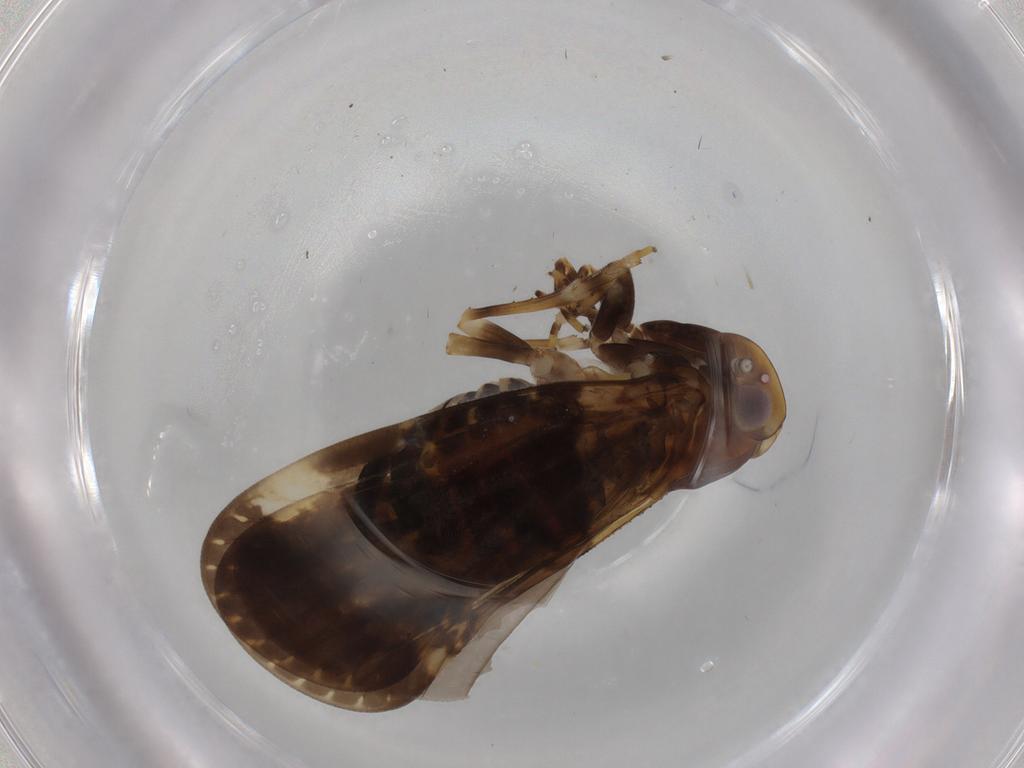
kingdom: Animalia
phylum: Arthropoda
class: Insecta
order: Hemiptera
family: Cixiidae
